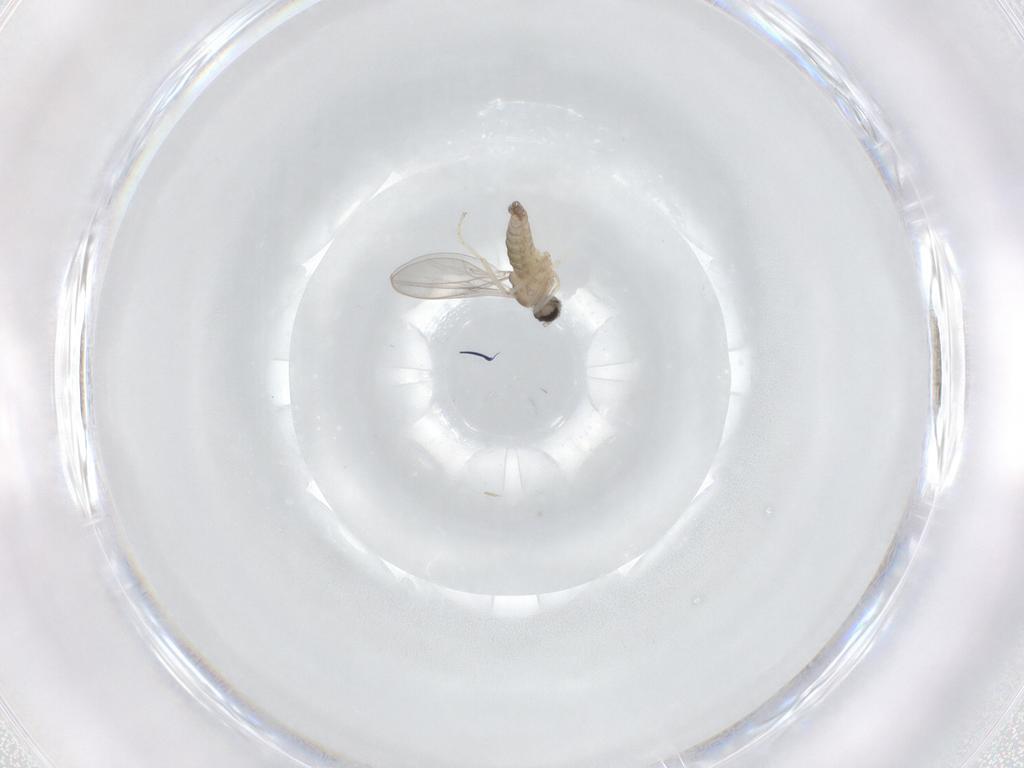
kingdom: Animalia
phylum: Arthropoda
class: Insecta
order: Diptera
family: Cecidomyiidae
